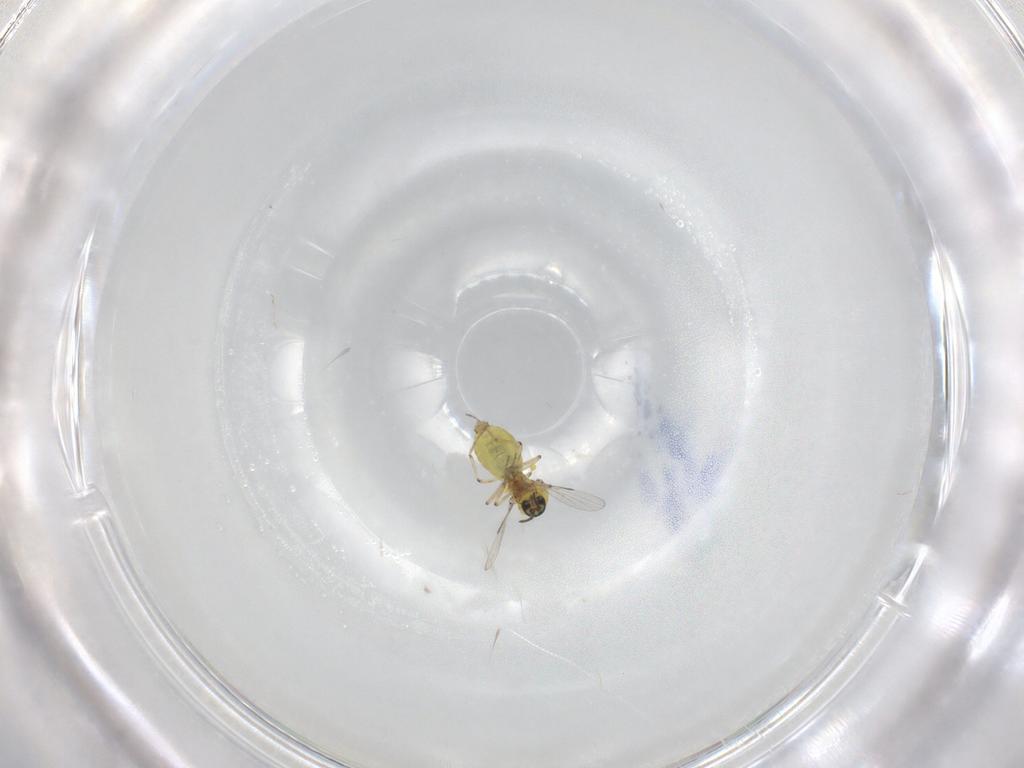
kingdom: Animalia
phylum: Arthropoda
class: Insecta
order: Diptera
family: Ceratopogonidae
